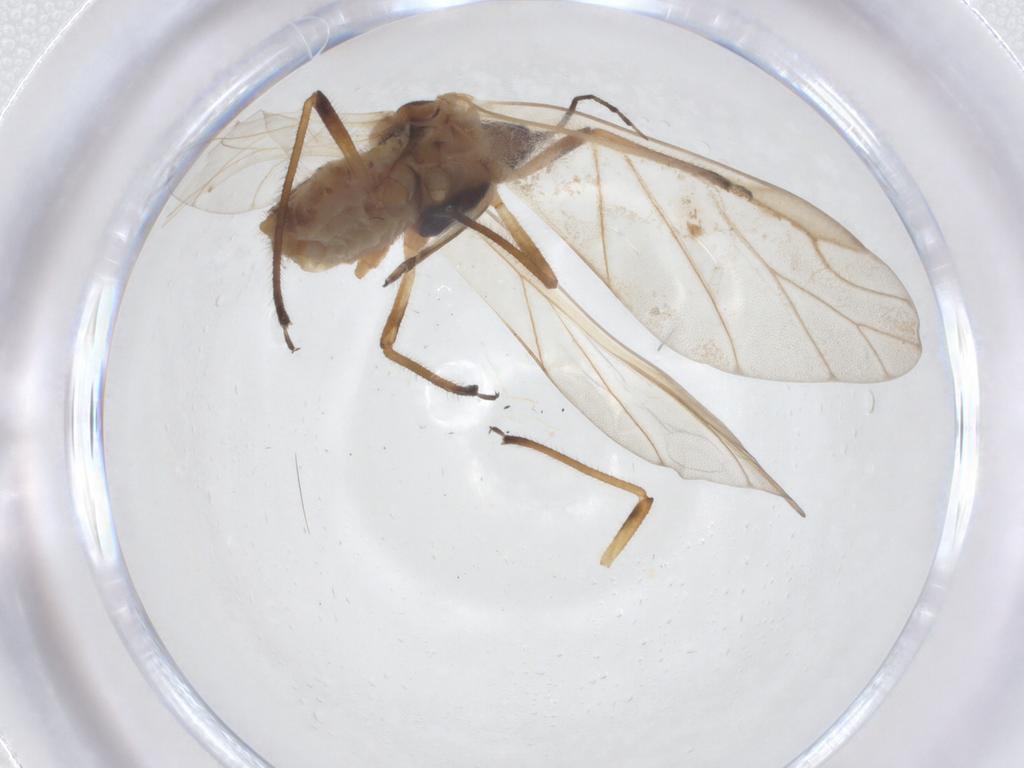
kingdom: Animalia
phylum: Arthropoda
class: Insecta
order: Hemiptera
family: Aphididae
